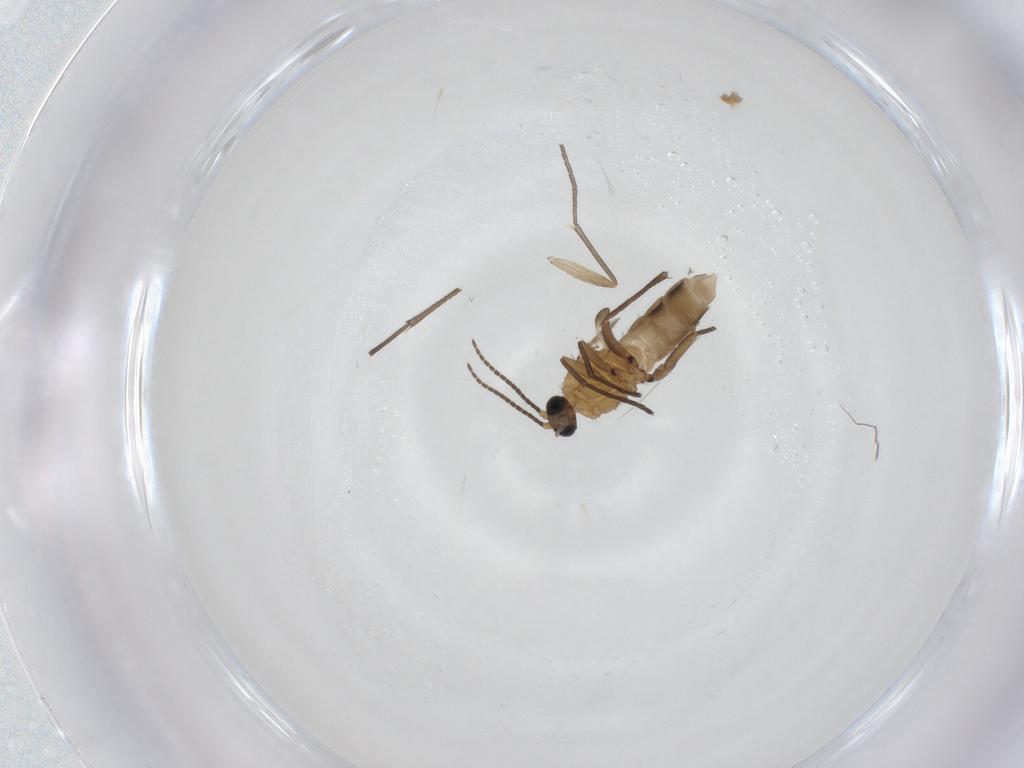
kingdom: Animalia
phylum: Arthropoda
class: Insecta
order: Diptera
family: Sciaridae
